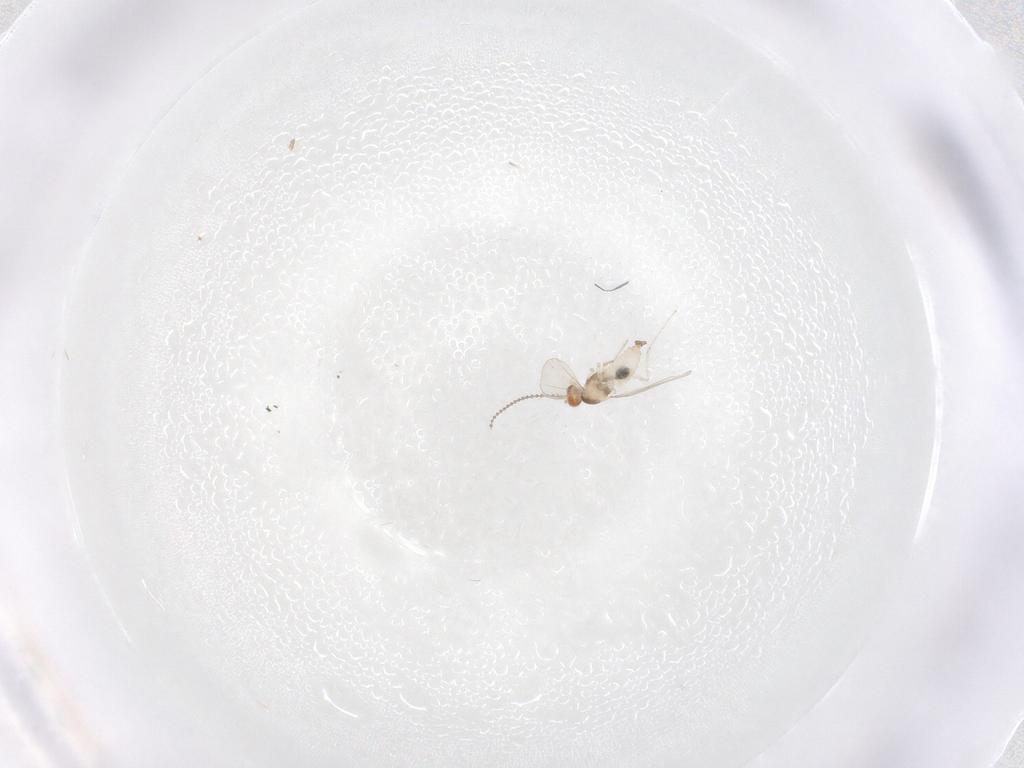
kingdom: Animalia
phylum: Arthropoda
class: Insecta
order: Diptera
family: Cecidomyiidae
